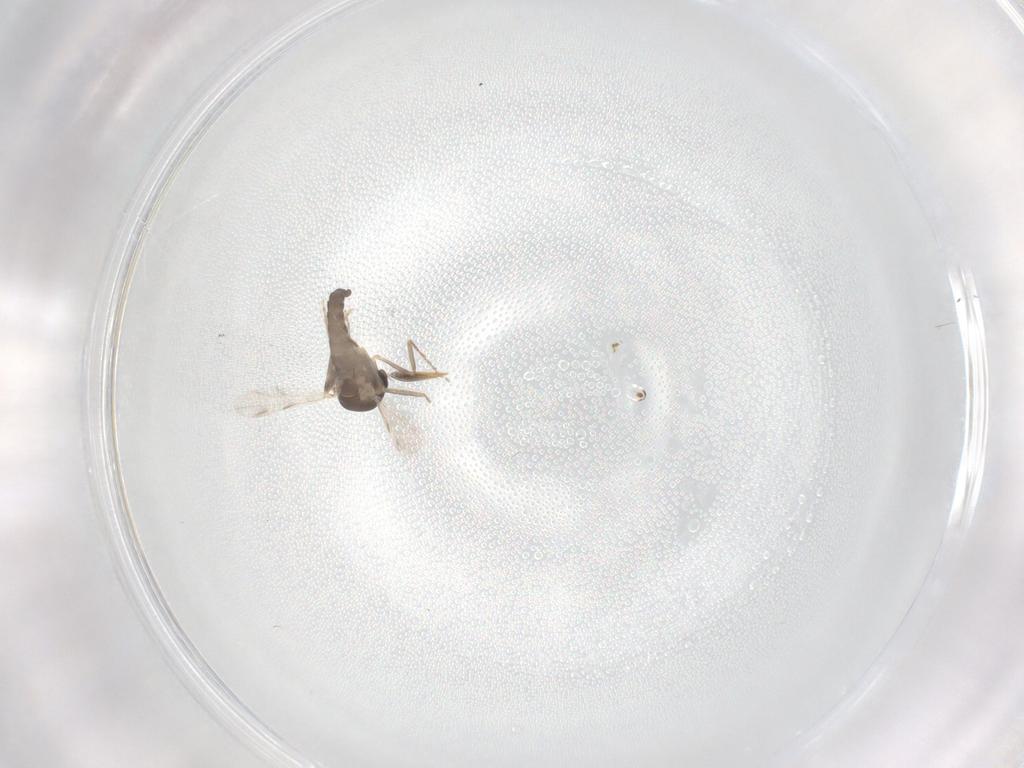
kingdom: Animalia
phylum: Arthropoda
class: Insecta
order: Diptera
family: Ceratopogonidae
